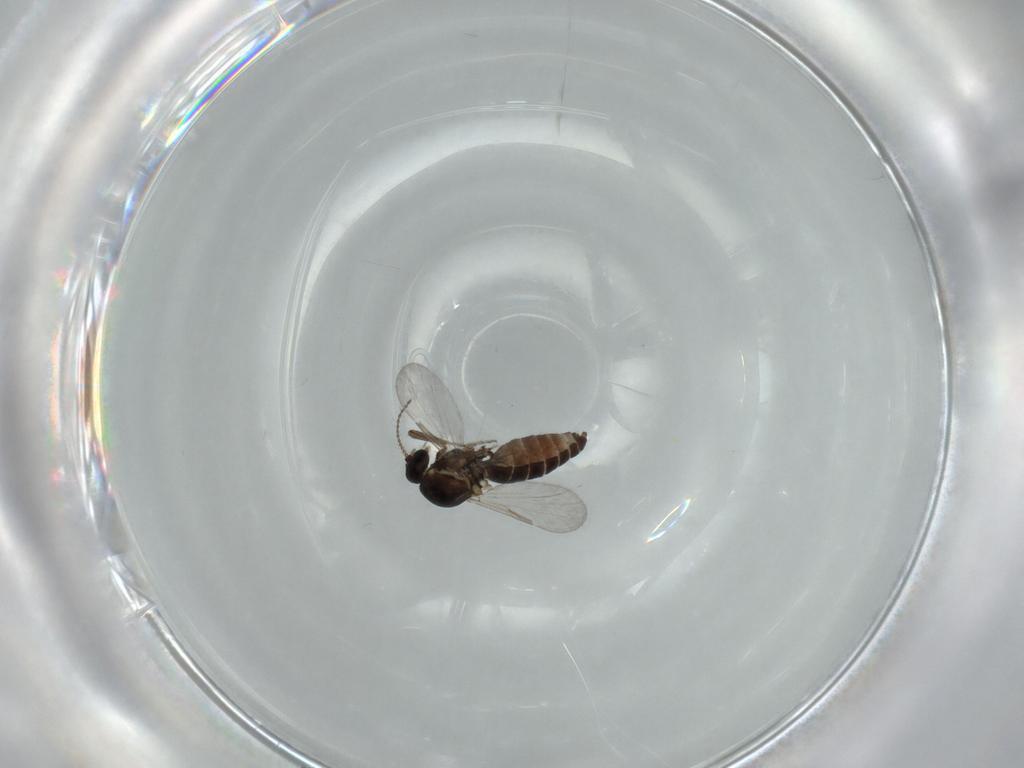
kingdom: Animalia
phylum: Arthropoda
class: Insecta
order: Diptera
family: Ceratopogonidae
